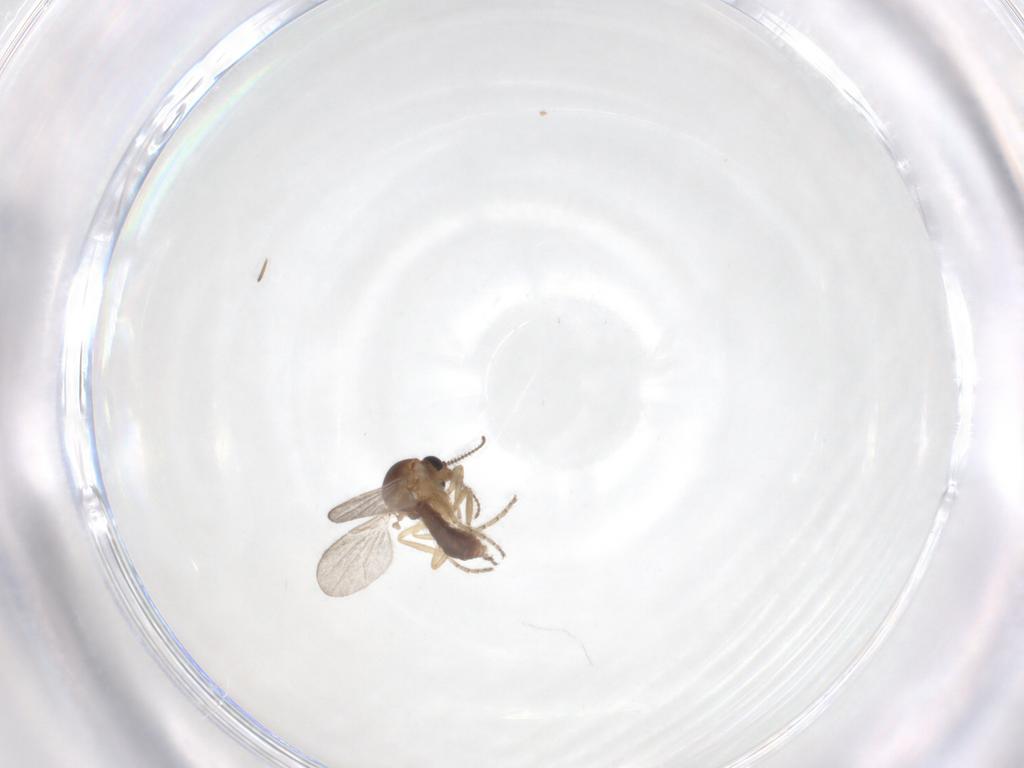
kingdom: Animalia
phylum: Arthropoda
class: Insecta
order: Diptera
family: Ceratopogonidae
